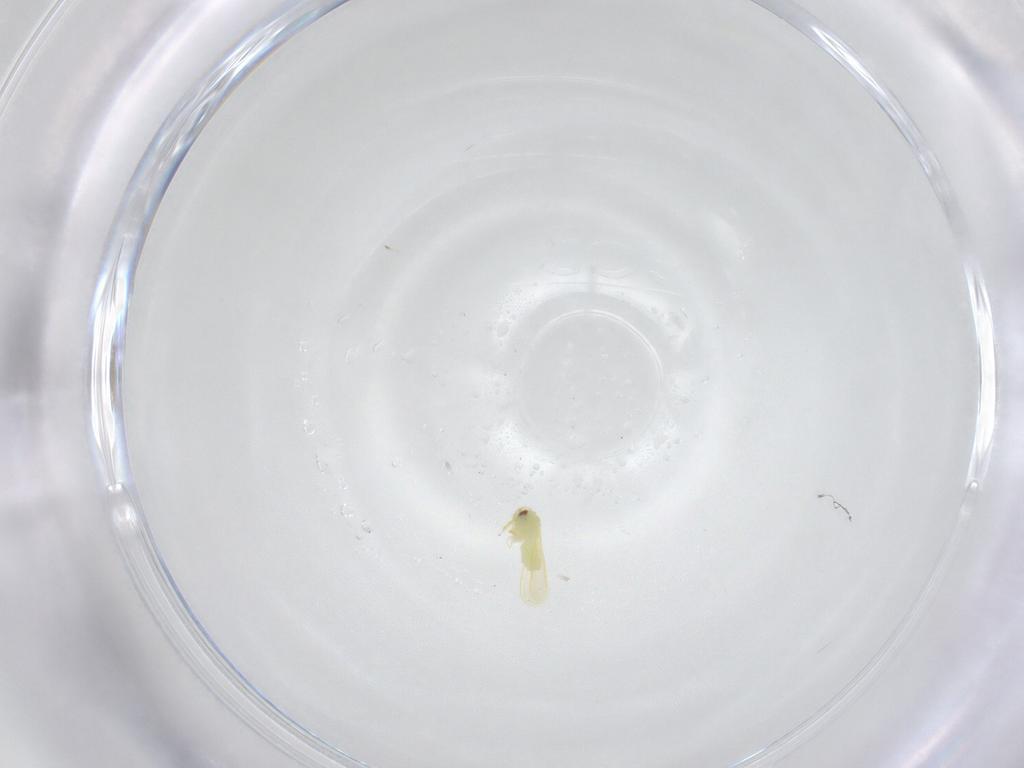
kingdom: Animalia
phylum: Arthropoda
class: Insecta
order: Hemiptera
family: Aleyrodidae
